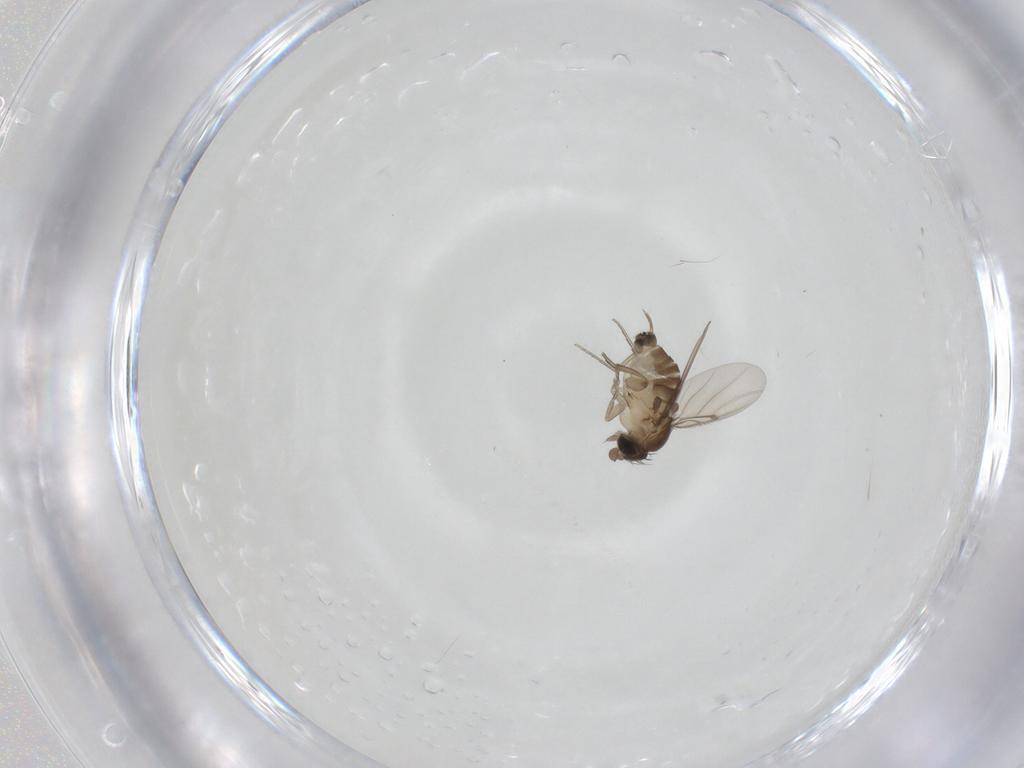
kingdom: Animalia
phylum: Arthropoda
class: Insecta
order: Diptera
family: Phoridae
